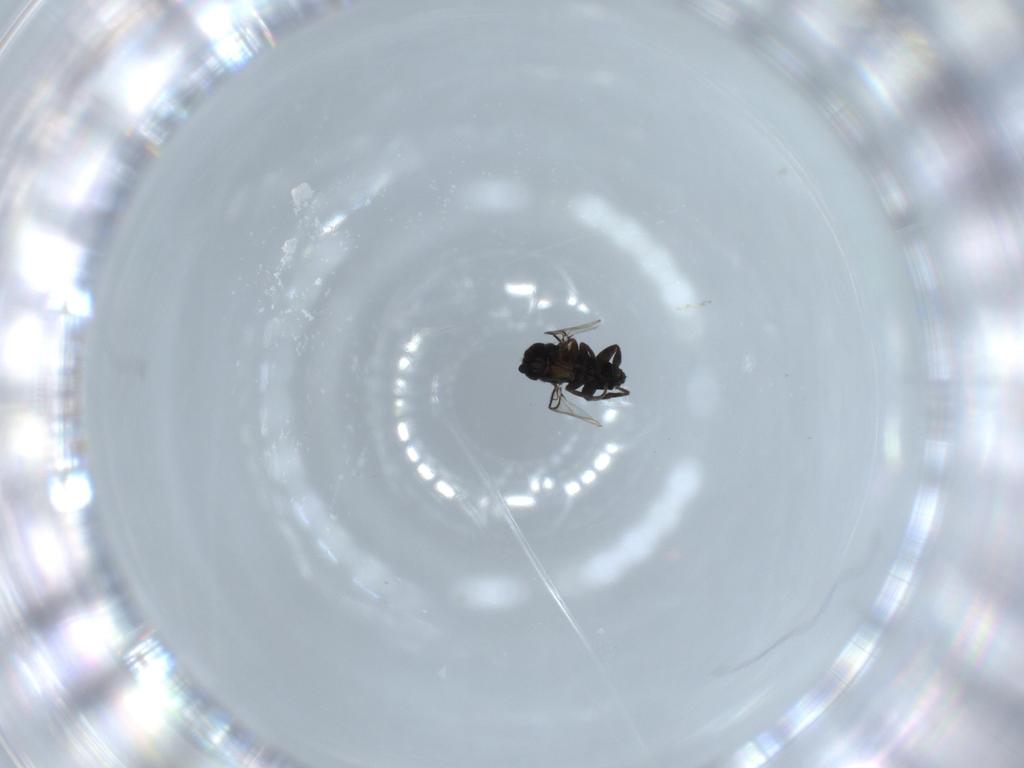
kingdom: Animalia
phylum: Arthropoda
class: Insecta
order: Diptera
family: Phoridae
